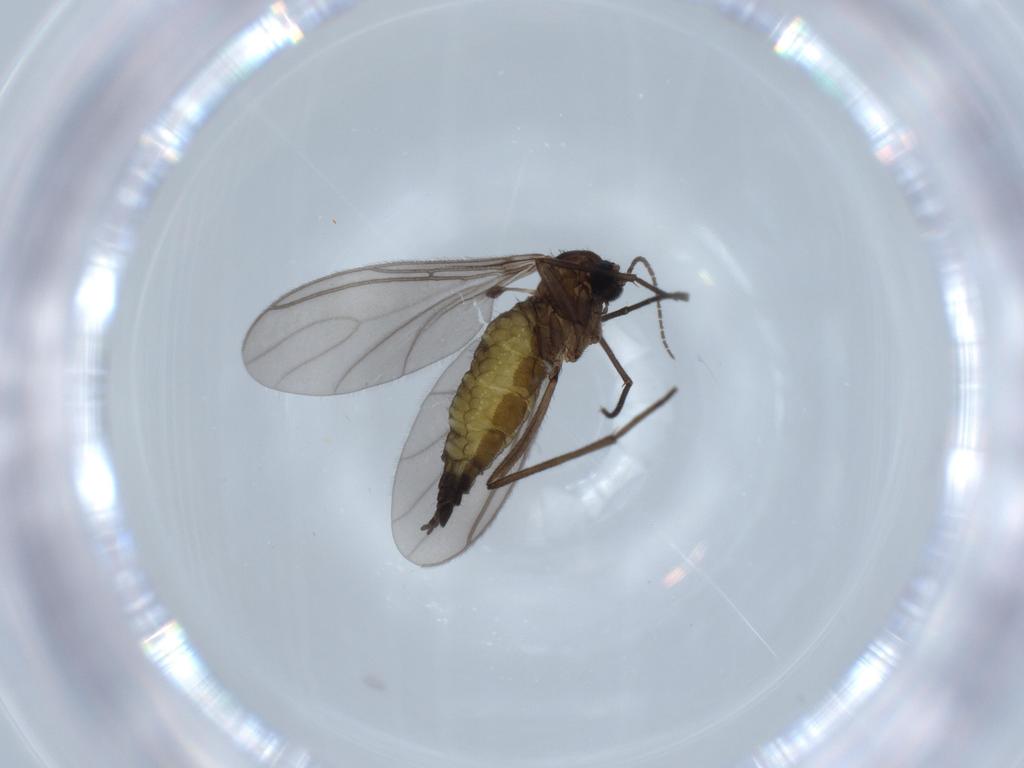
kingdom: Animalia
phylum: Arthropoda
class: Insecta
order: Diptera
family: Sciaridae
